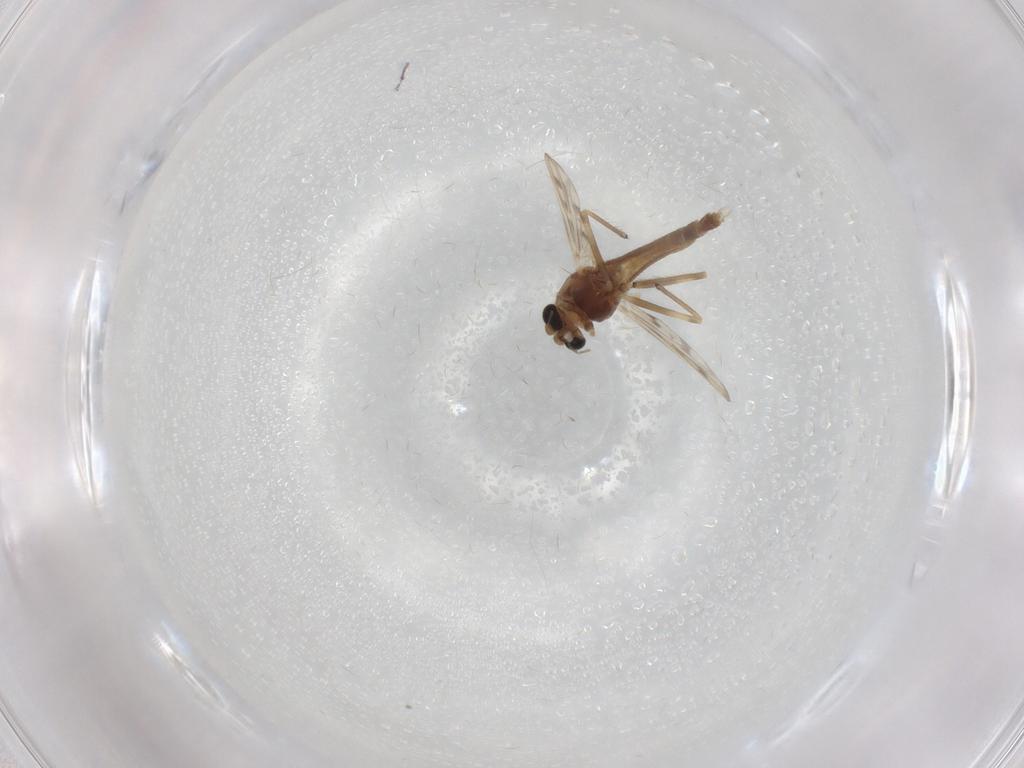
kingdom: Animalia
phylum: Arthropoda
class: Insecta
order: Diptera
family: Chironomidae
